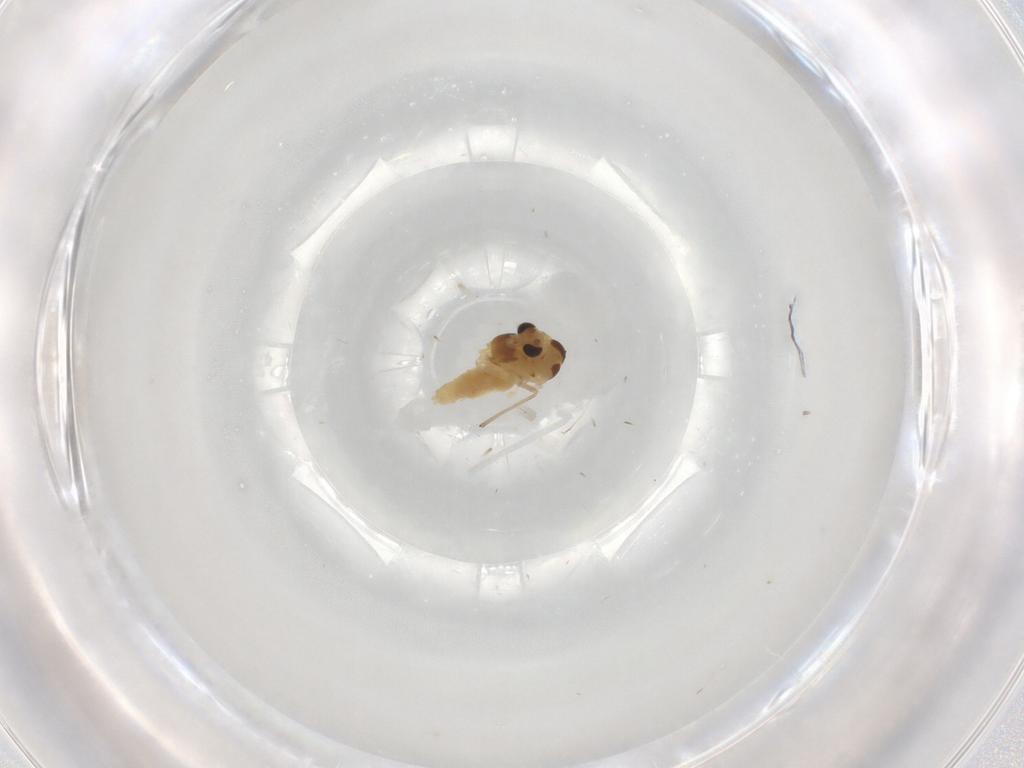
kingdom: Animalia
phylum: Arthropoda
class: Insecta
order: Diptera
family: Chironomidae
